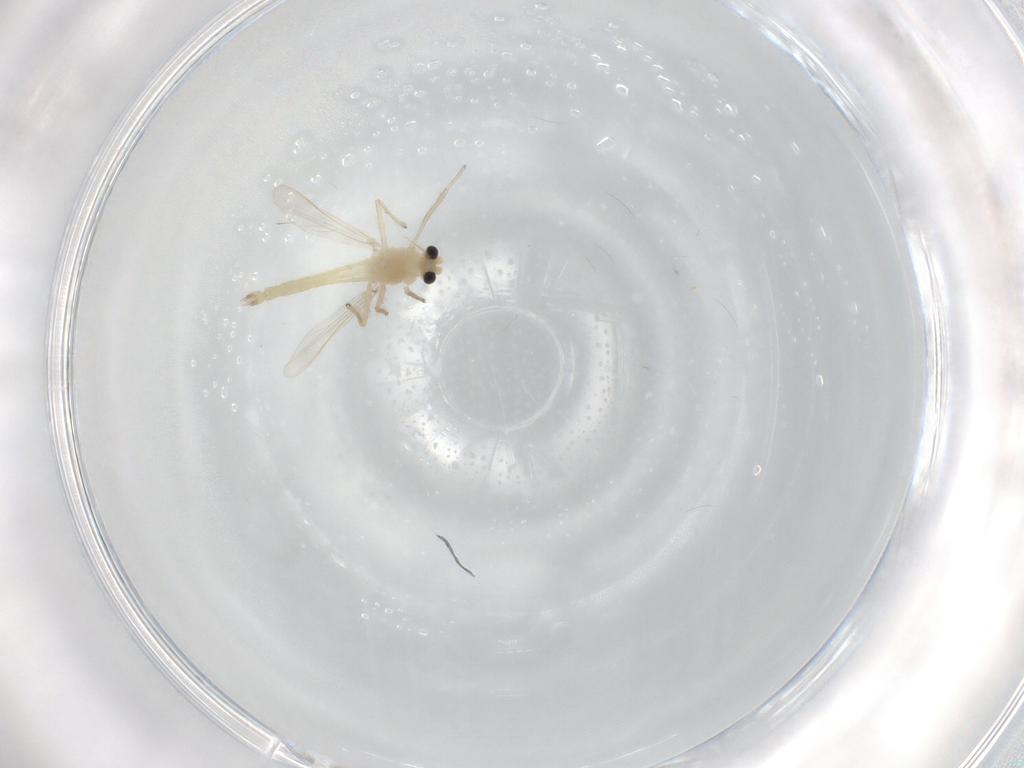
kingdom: Animalia
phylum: Arthropoda
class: Insecta
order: Diptera
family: Chironomidae
